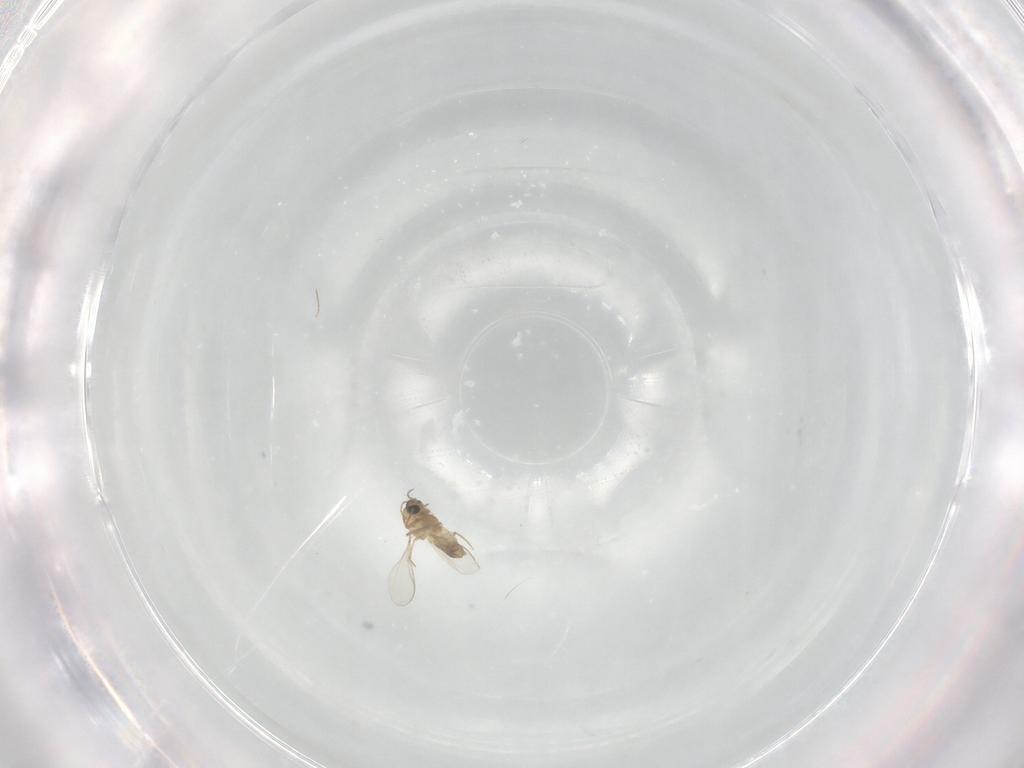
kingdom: Animalia
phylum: Arthropoda
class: Insecta
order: Diptera
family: Chironomidae
